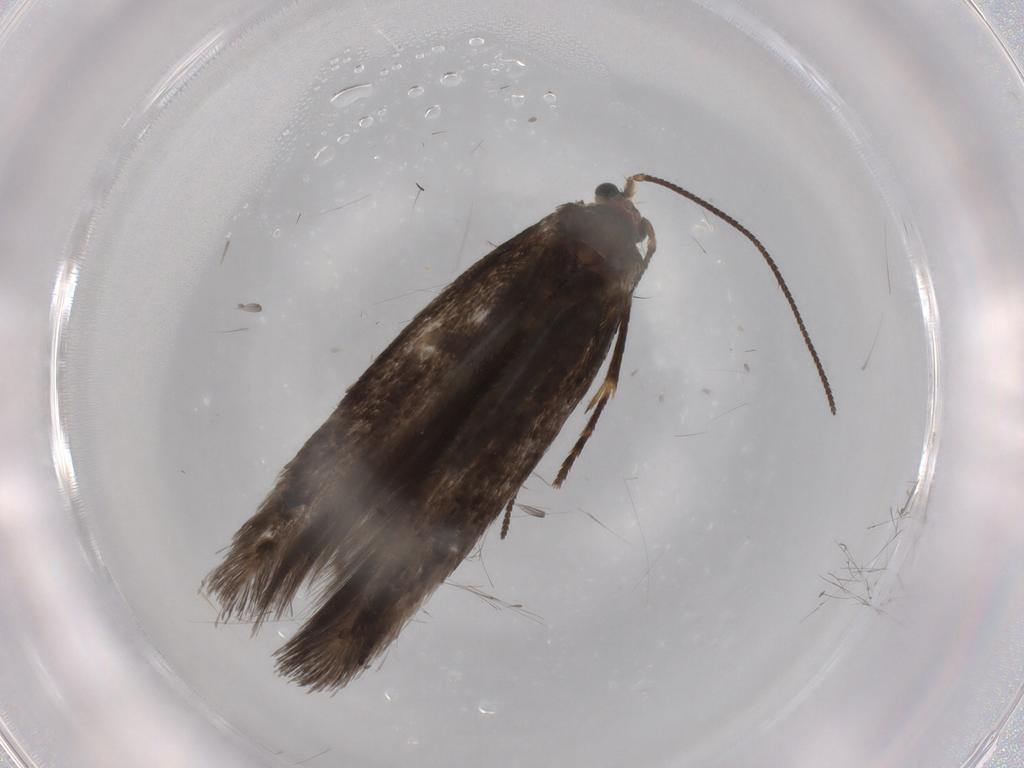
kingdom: Animalia
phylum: Arthropoda
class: Insecta
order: Lepidoptera
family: Nepticulidae
